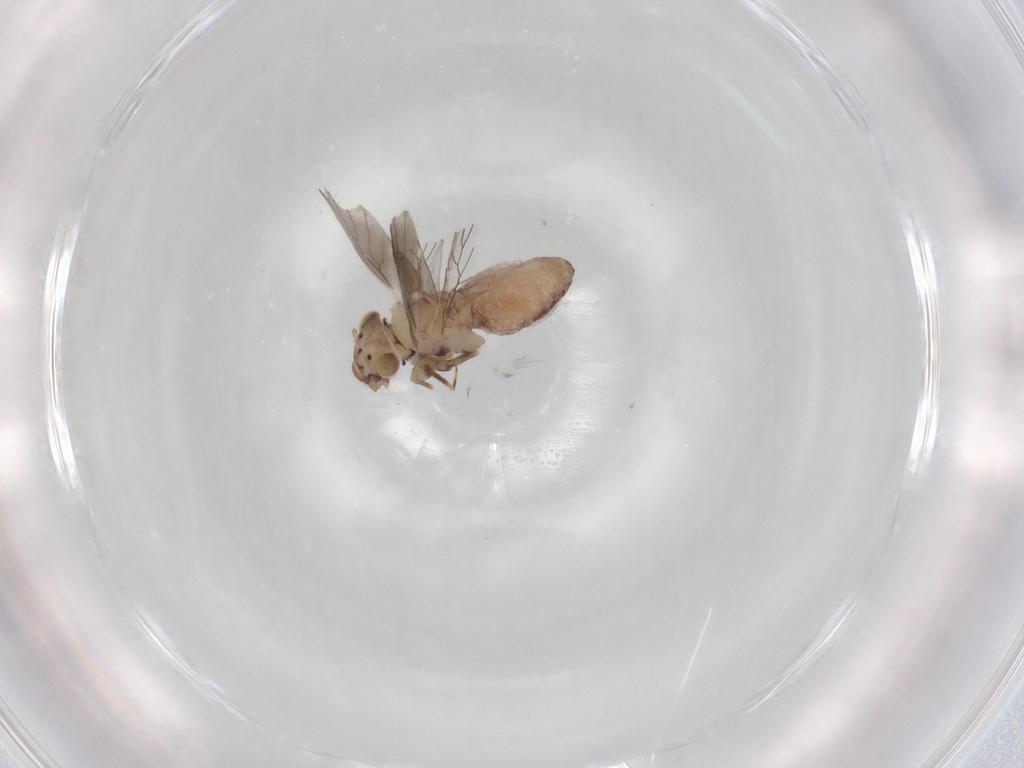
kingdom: Animalia
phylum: Arthropoda
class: Insecta
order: Psocodea
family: Lepidopsocidae
